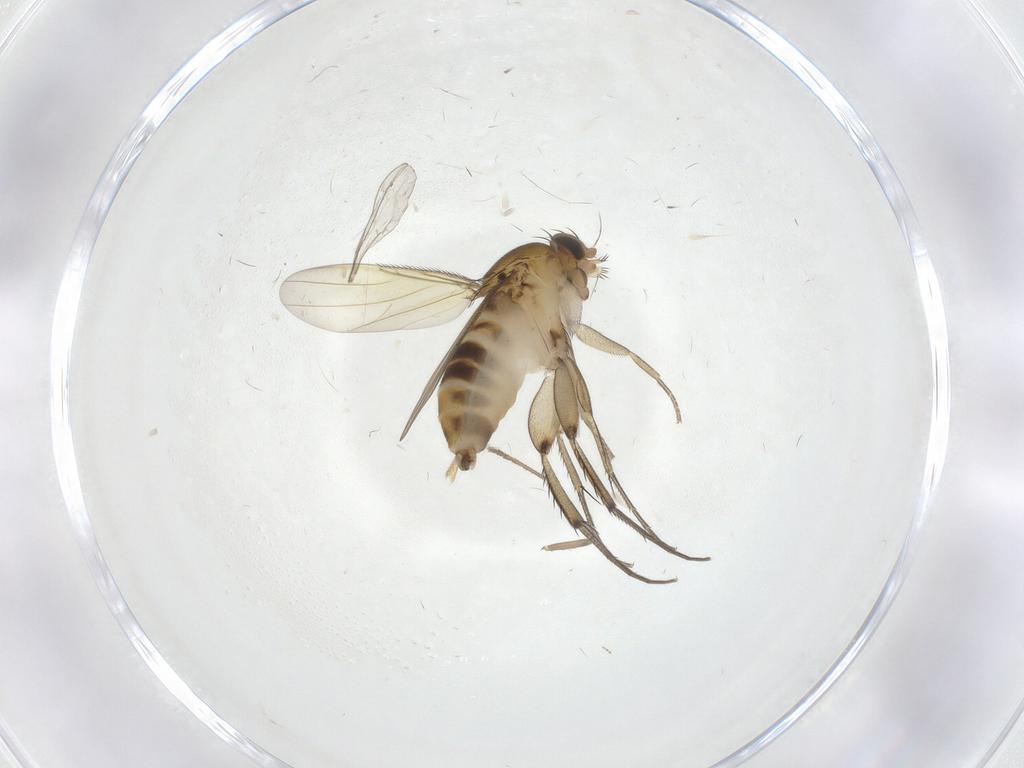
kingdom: Animalia
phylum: Arthropoda
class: Insecta
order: Diptera
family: Phoridae
